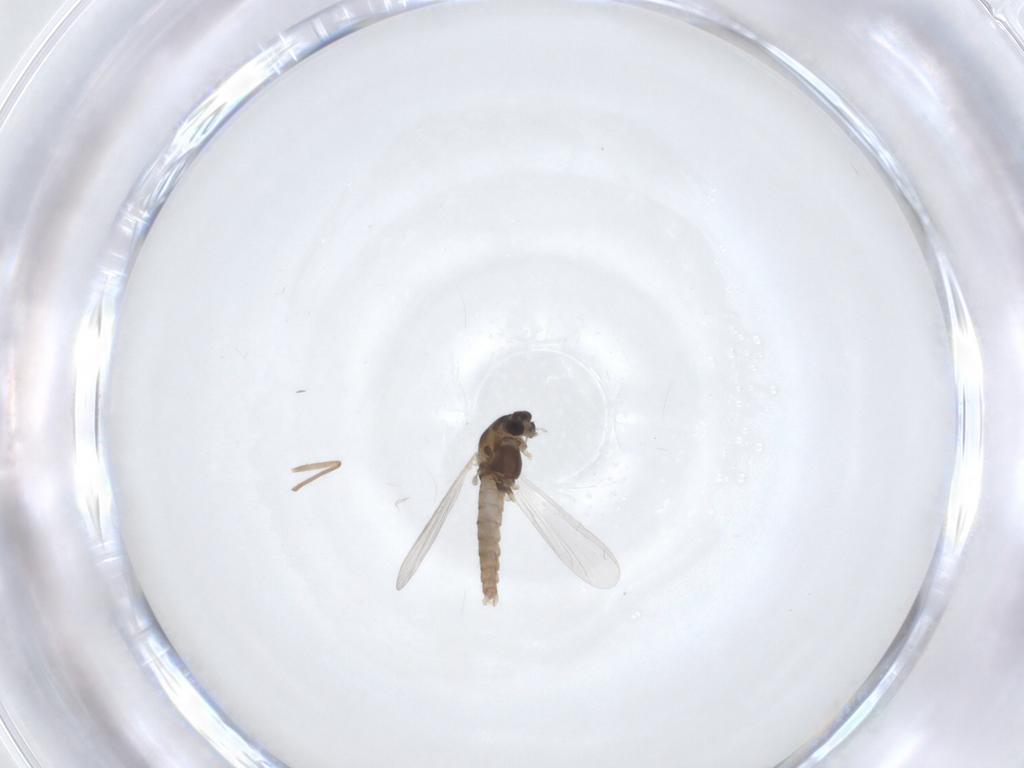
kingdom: Animalia
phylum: Arthropoda
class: Insecta
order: Diptera
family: Chironomidae
